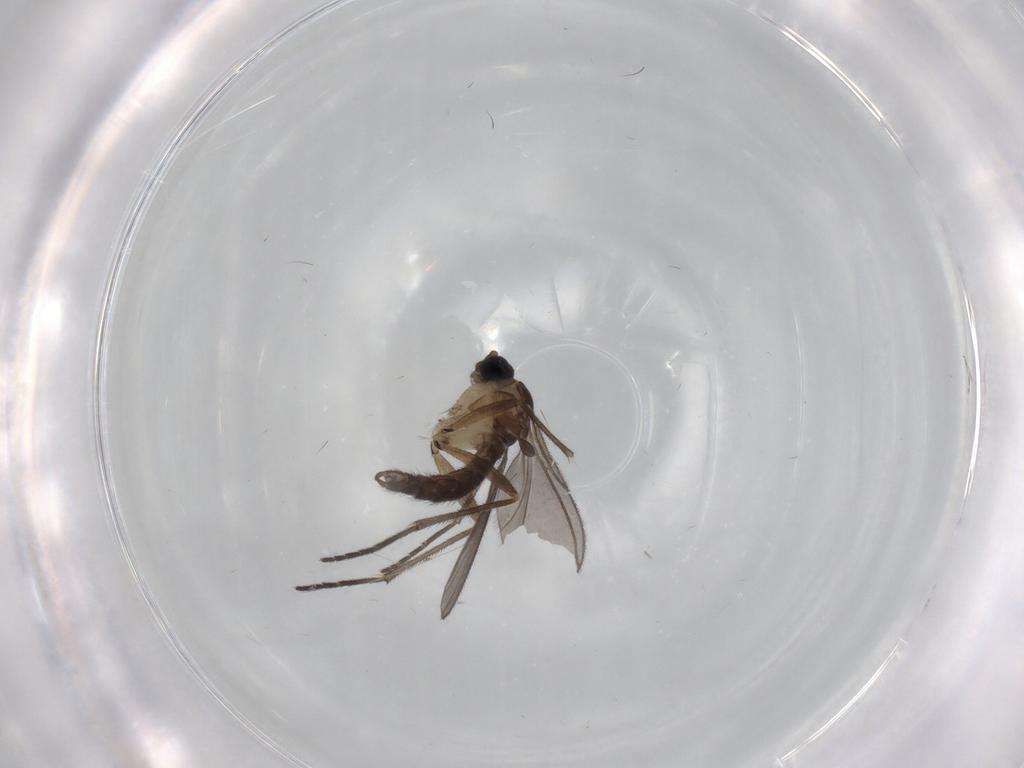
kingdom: Animalia
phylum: Arthropoda
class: Insecta
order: Diptera
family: Sciaridae
